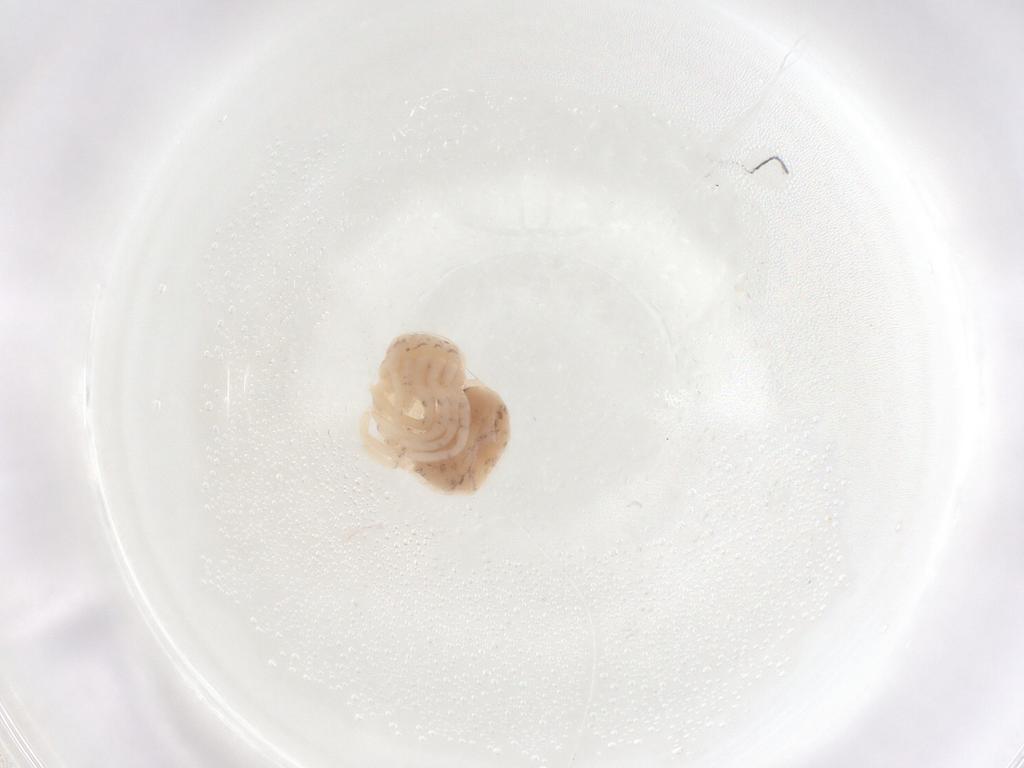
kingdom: Animalia
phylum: Arthropoda
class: Insecta
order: Lepidoptera
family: Geometridae
